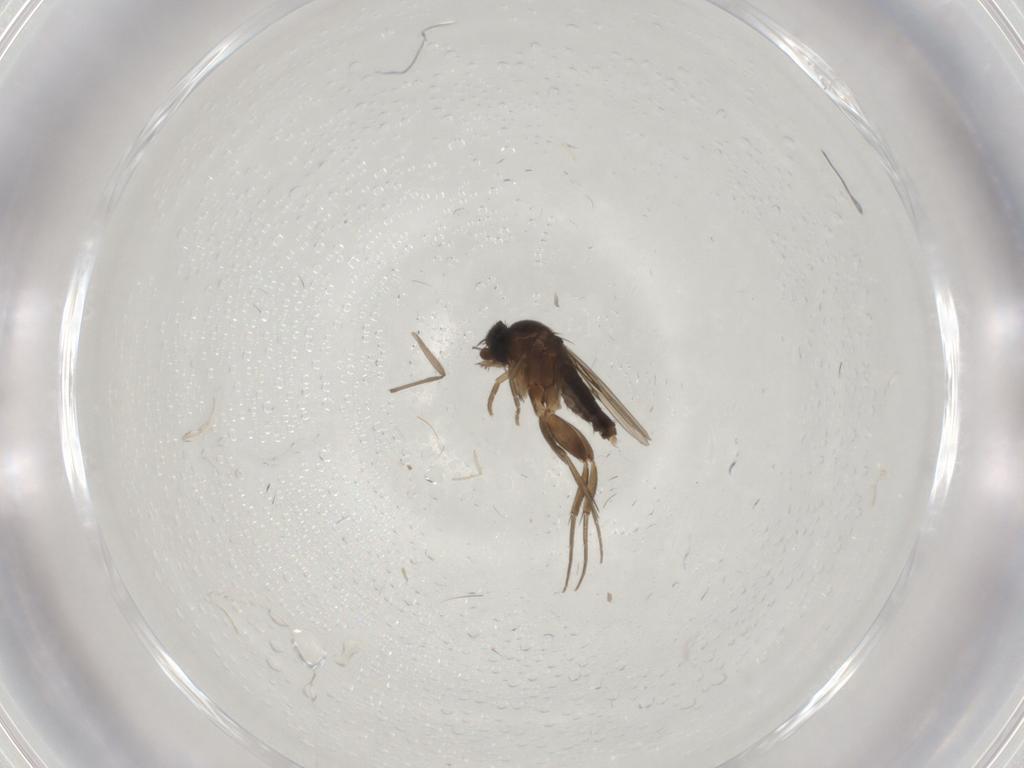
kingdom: Animalia
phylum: Arthropoda
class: Insecta
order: Diptera
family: Phoridae
